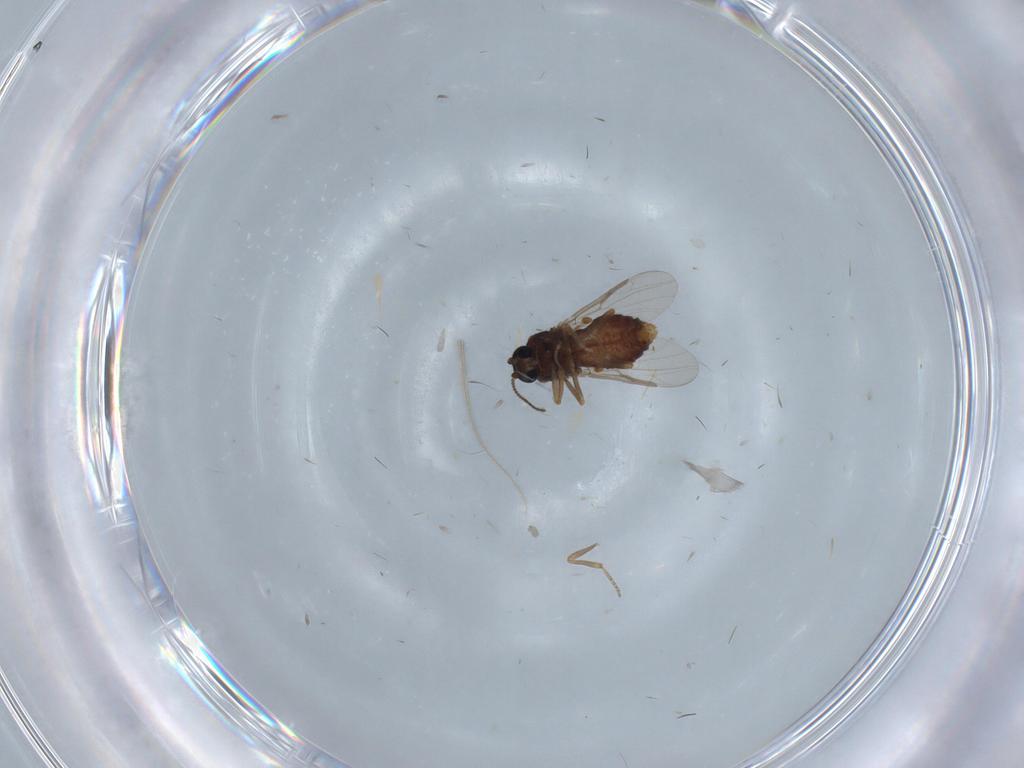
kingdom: Animalia
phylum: Arthropoda
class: Insecta
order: Diptera
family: Ceratopogonidae
